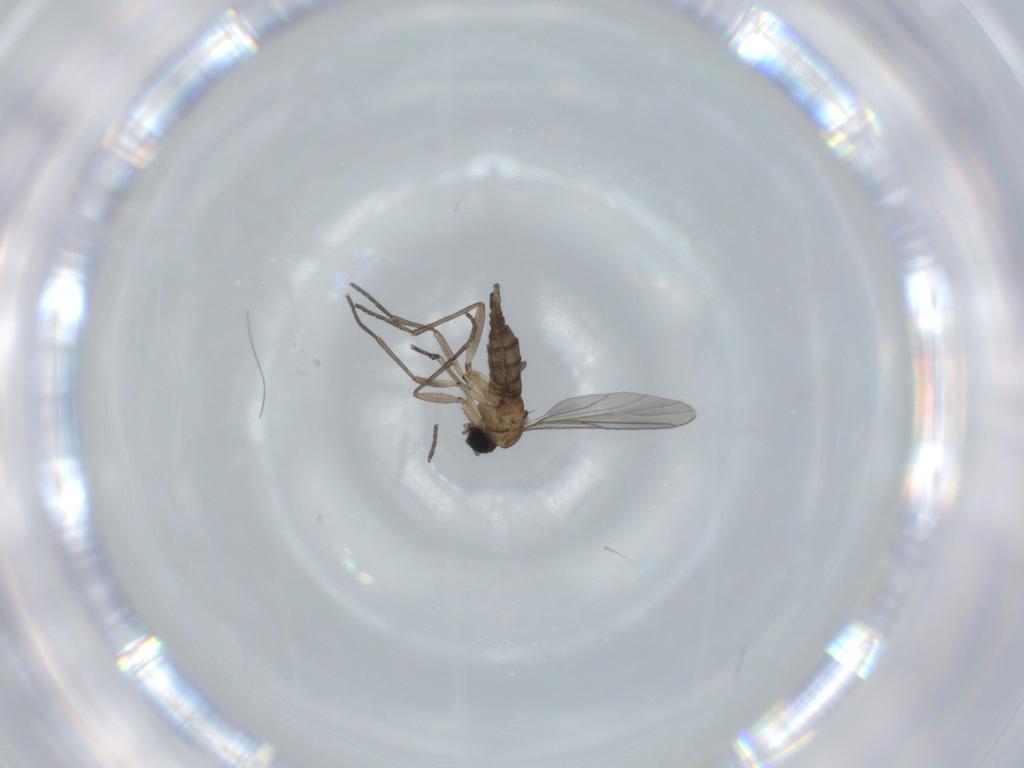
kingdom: Animalia
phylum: Arthropoda
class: Insecta
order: Diptera
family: Sciaridae
